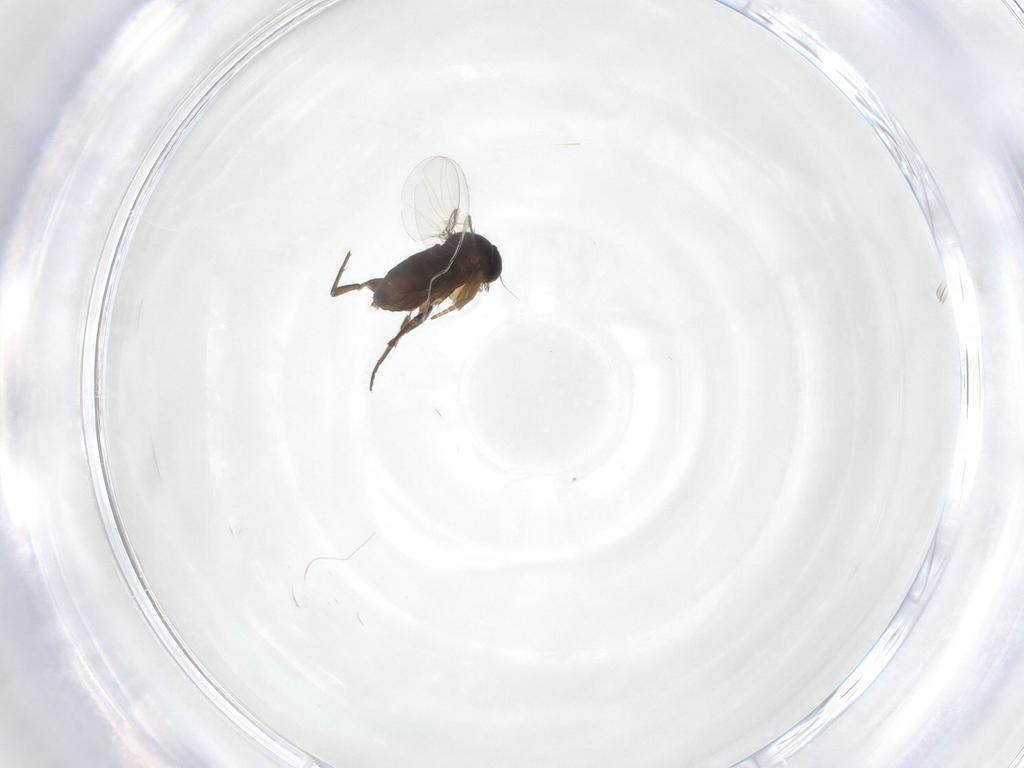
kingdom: Animalia
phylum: Arthropoda
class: Insecta
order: Diptera
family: Phoridae
